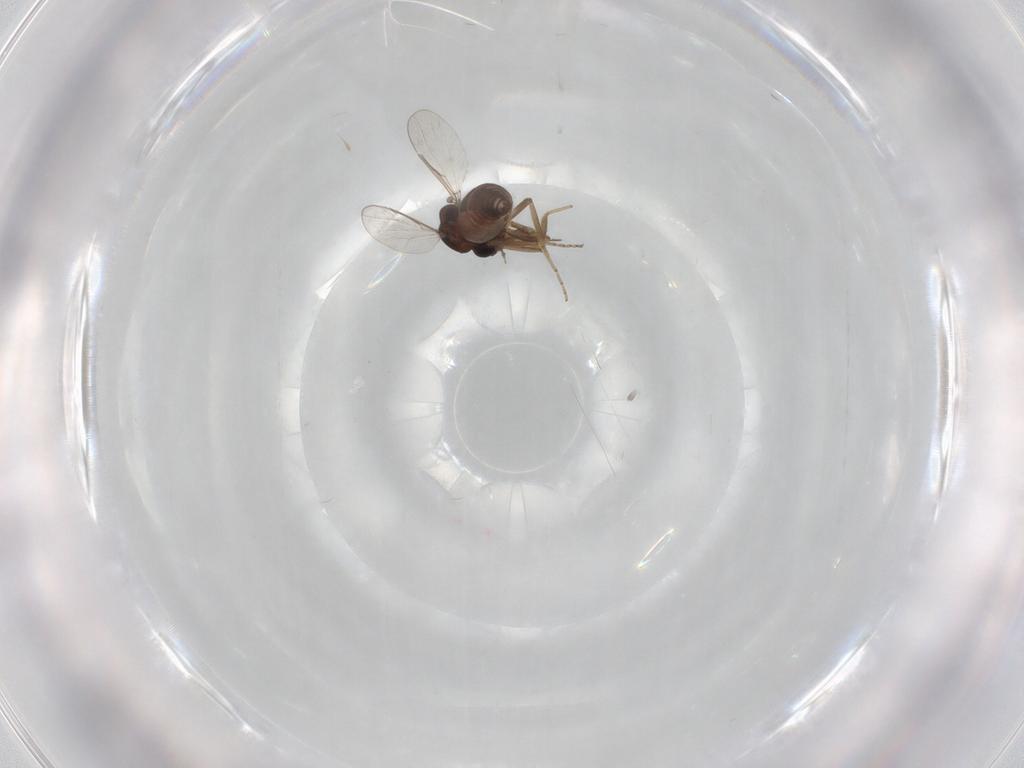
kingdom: Animalia
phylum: Arthropoda
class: Insecta
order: Diptera
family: Ceratopogonidae
